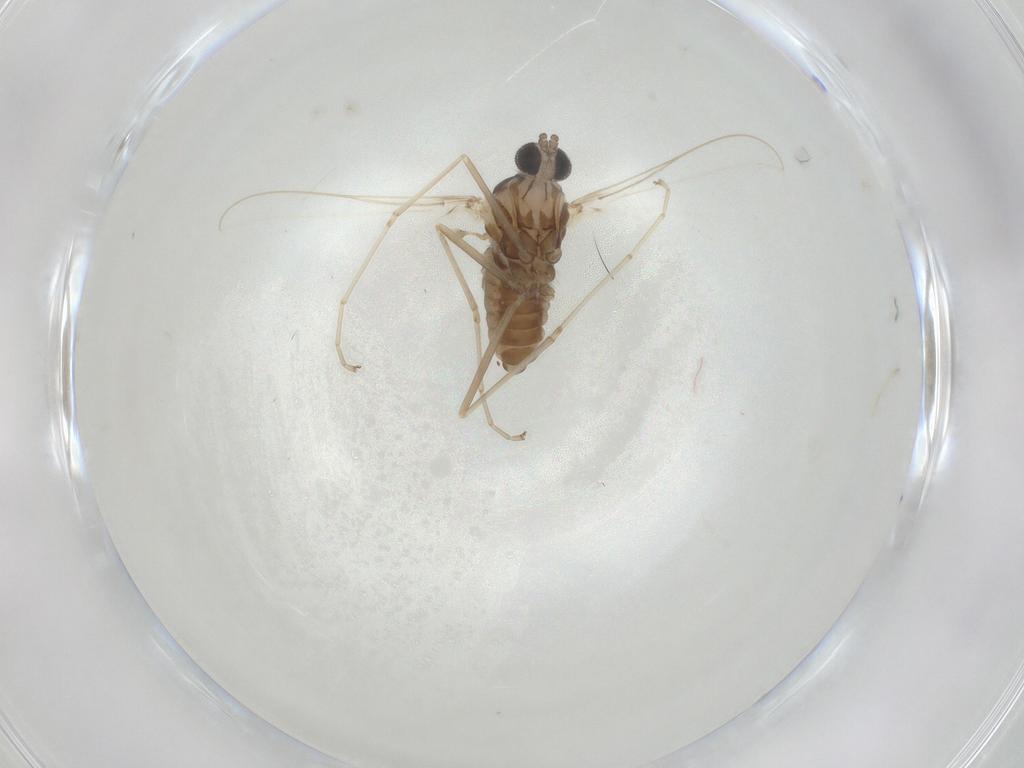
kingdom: Animalia
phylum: Arthropoda
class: Insecta
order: Diptera
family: Cecidomyiidae
